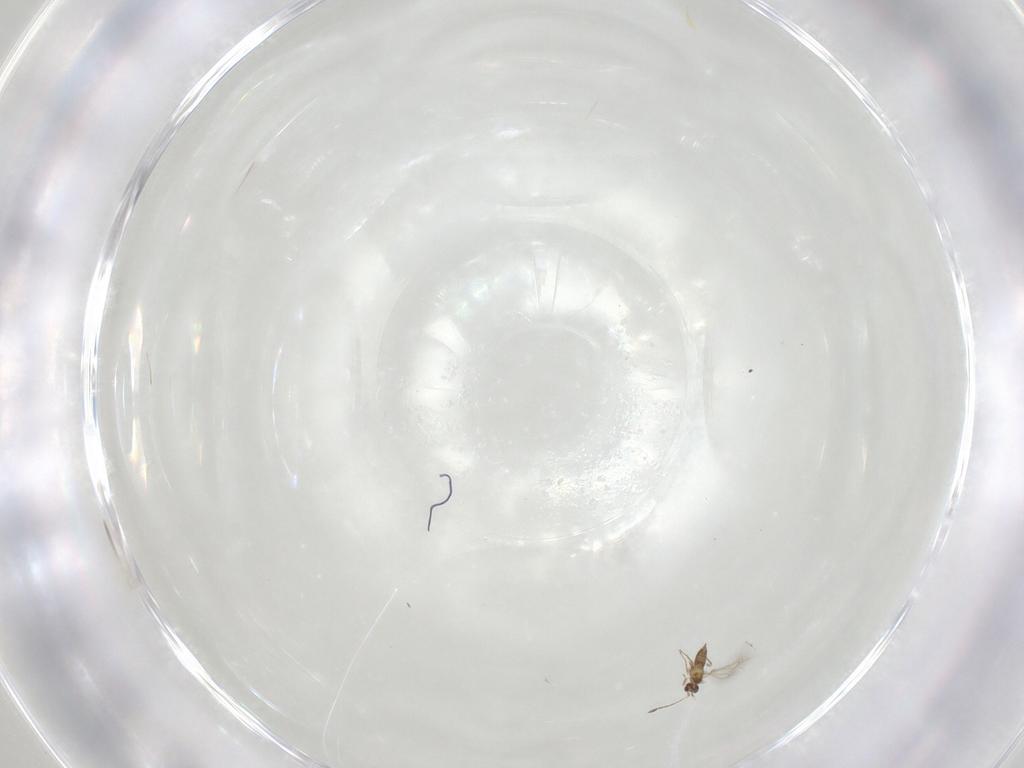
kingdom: Animalia
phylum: Arthropoda
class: Insecta
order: Hymenoptera
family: Mymaridae
